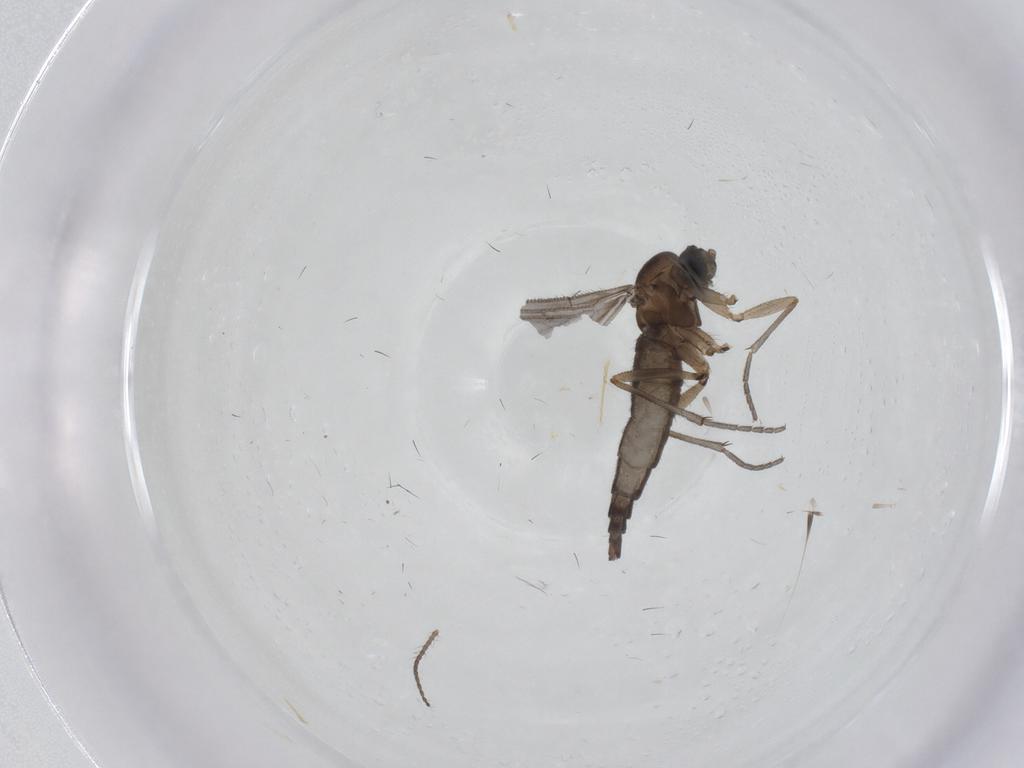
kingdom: Animalia
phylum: Arthropoda
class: Insecta
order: Diptera
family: Sciaridae
